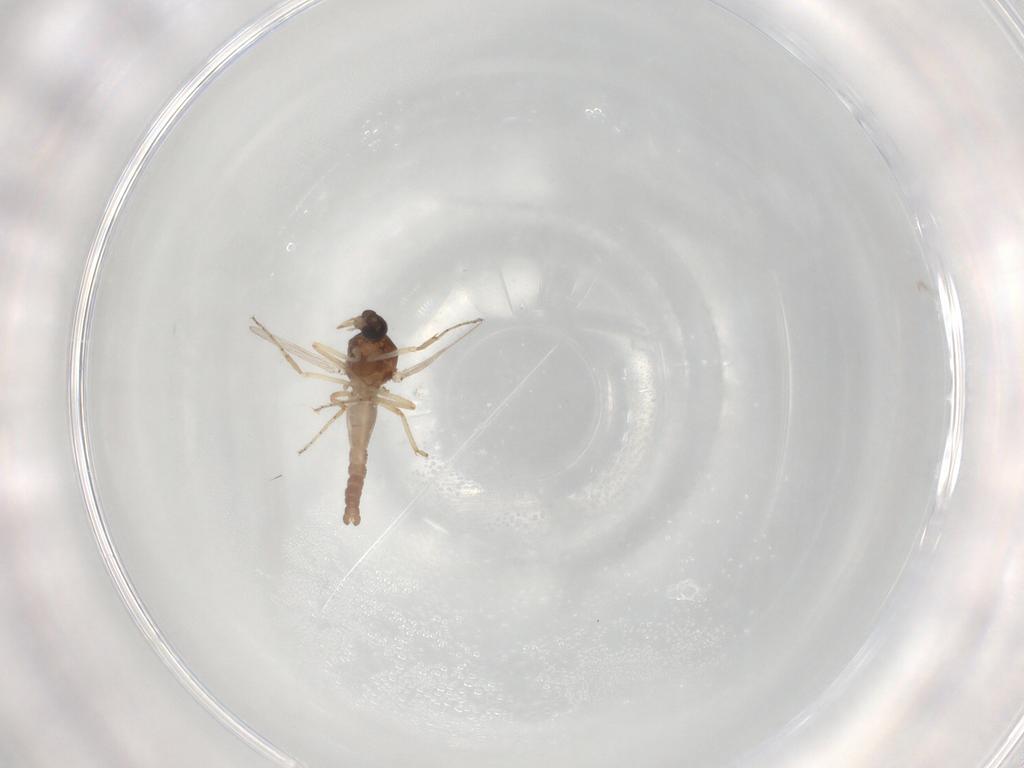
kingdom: Animalia
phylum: Arthropoda
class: Insecta
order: Diptera
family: Ceratopogonidae
